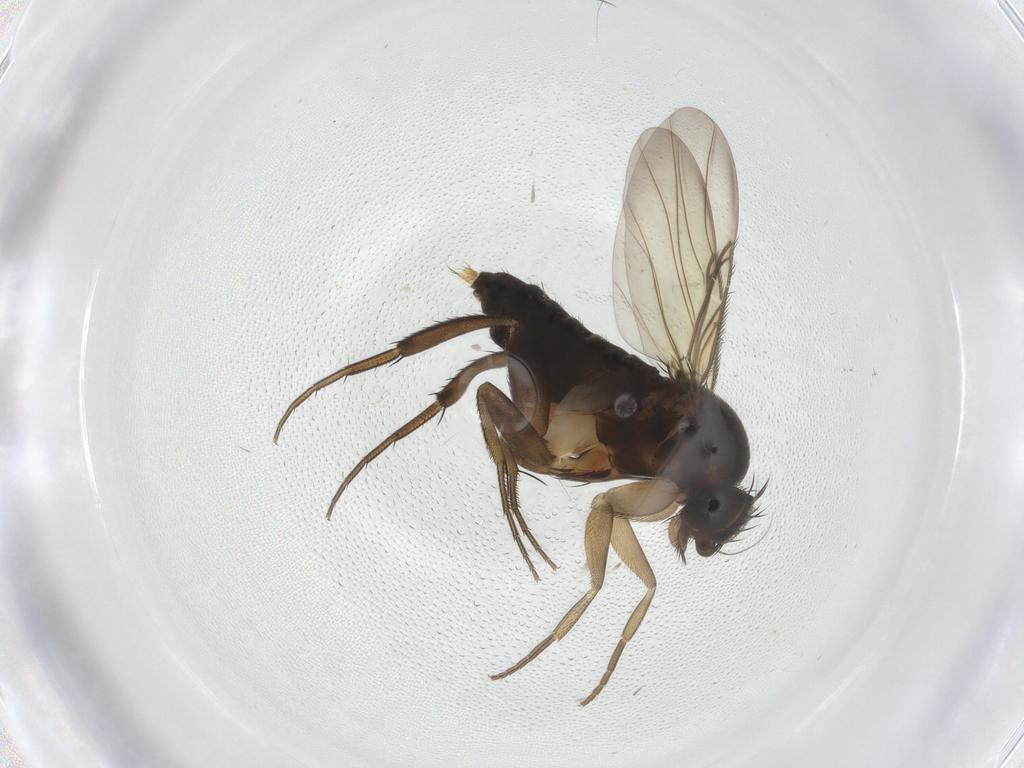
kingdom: Animalia
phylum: Arthropoda
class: Insecta
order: Diptera
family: Phoridae
